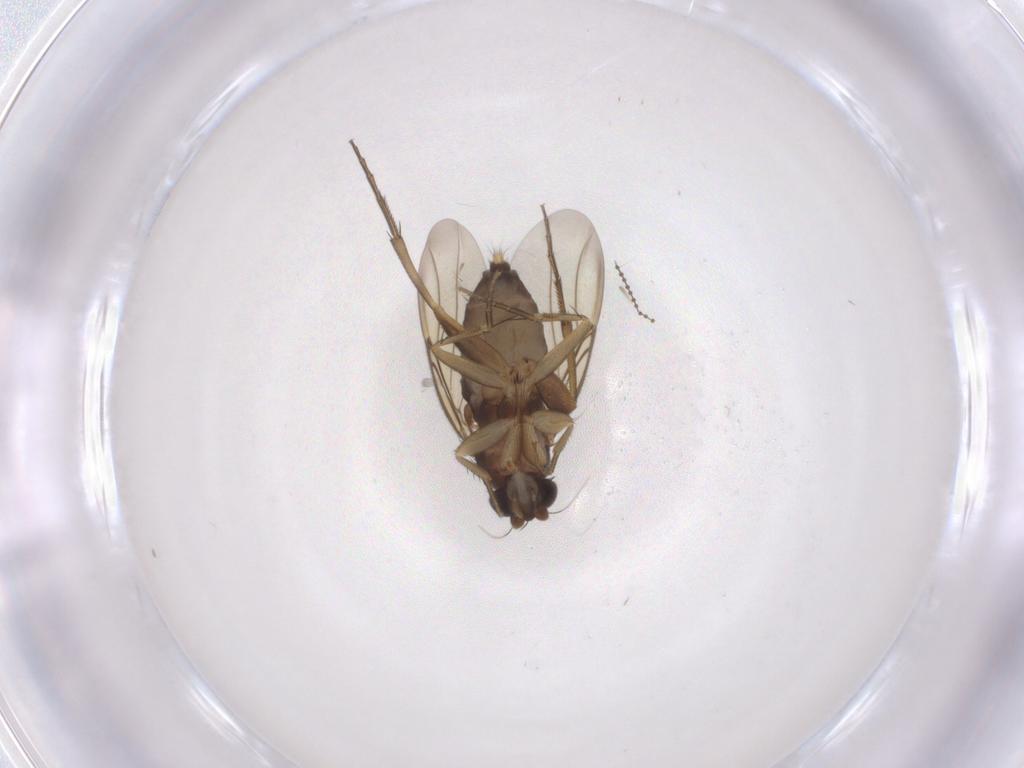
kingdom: Animalia
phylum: Arthropoda
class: Insecta
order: Diptera
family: Phoridae
